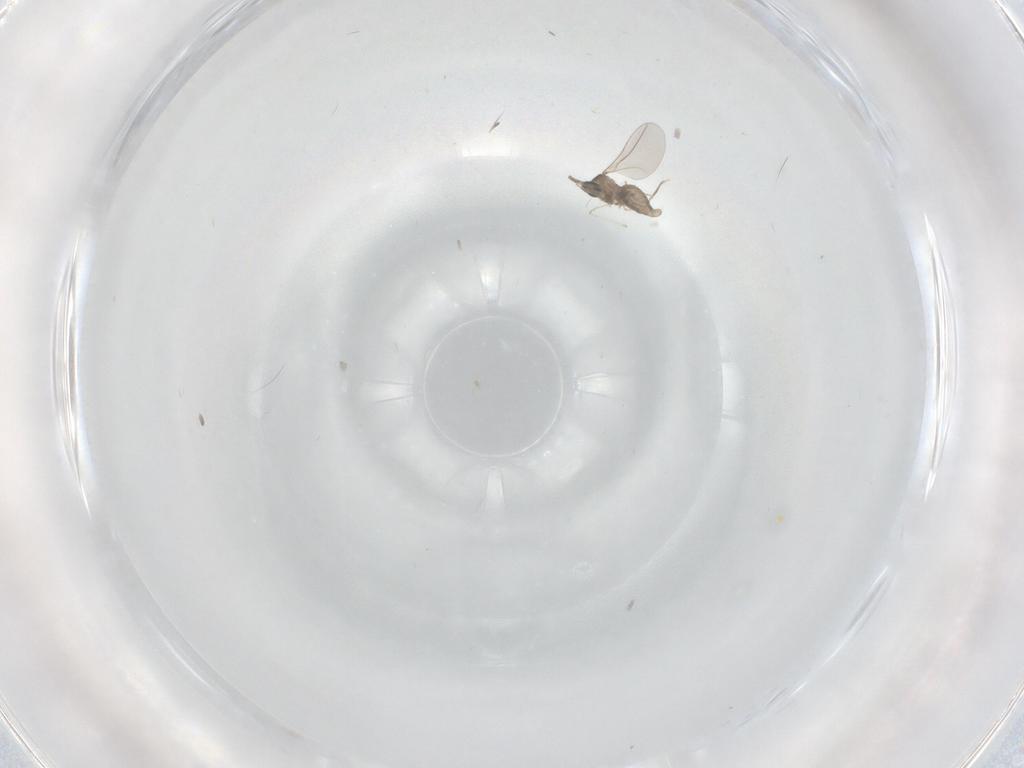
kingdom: Animalia
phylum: Arthropoda
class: Insecta
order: Diptera
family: Cecidomyiidae
